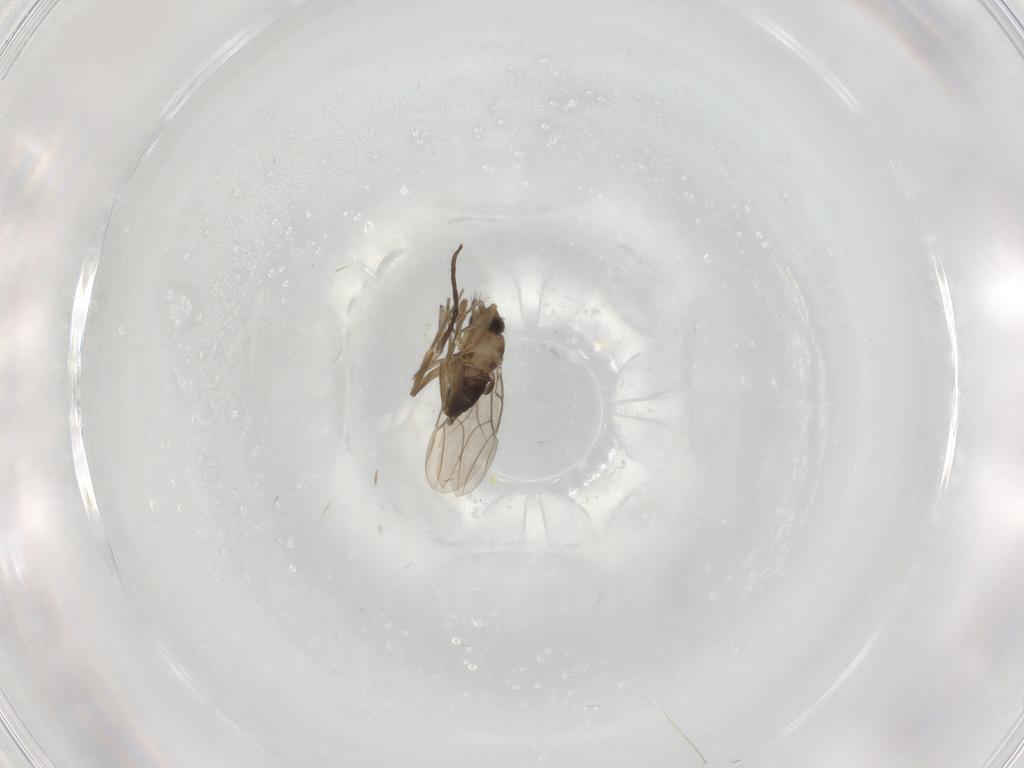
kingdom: Animalia
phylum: Arthropoda
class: Insecta
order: Diptera
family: Phoridae
